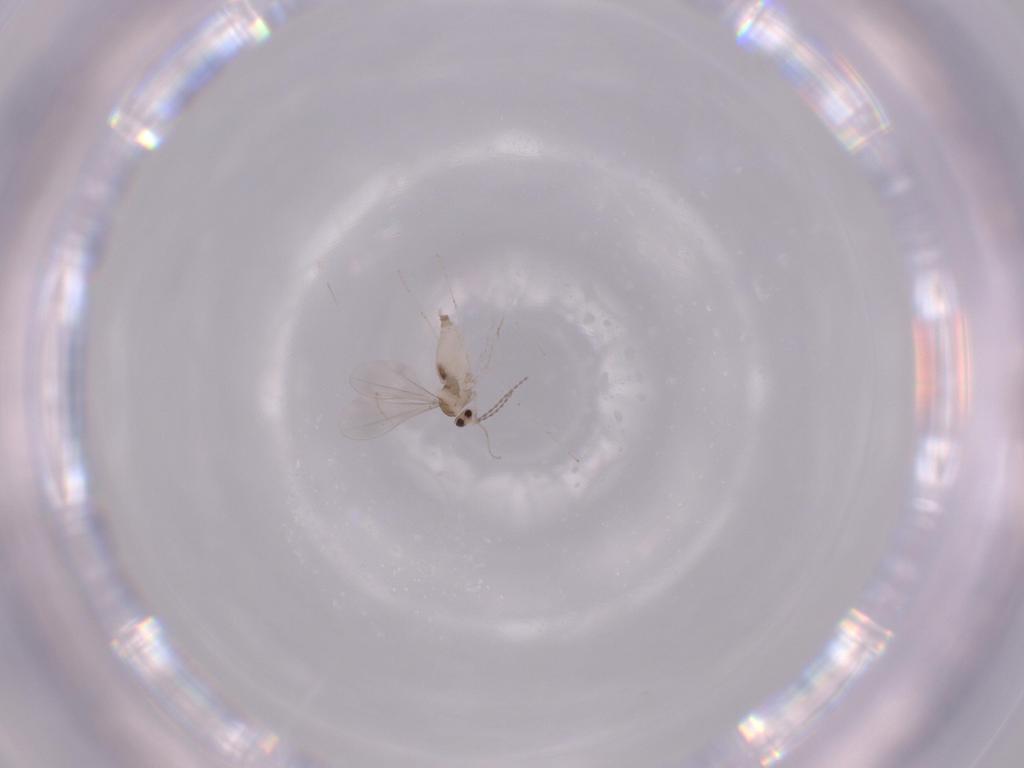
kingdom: Animalia
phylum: Arthropoda
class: Insecta
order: Diptera
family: Cecidomyiidae
